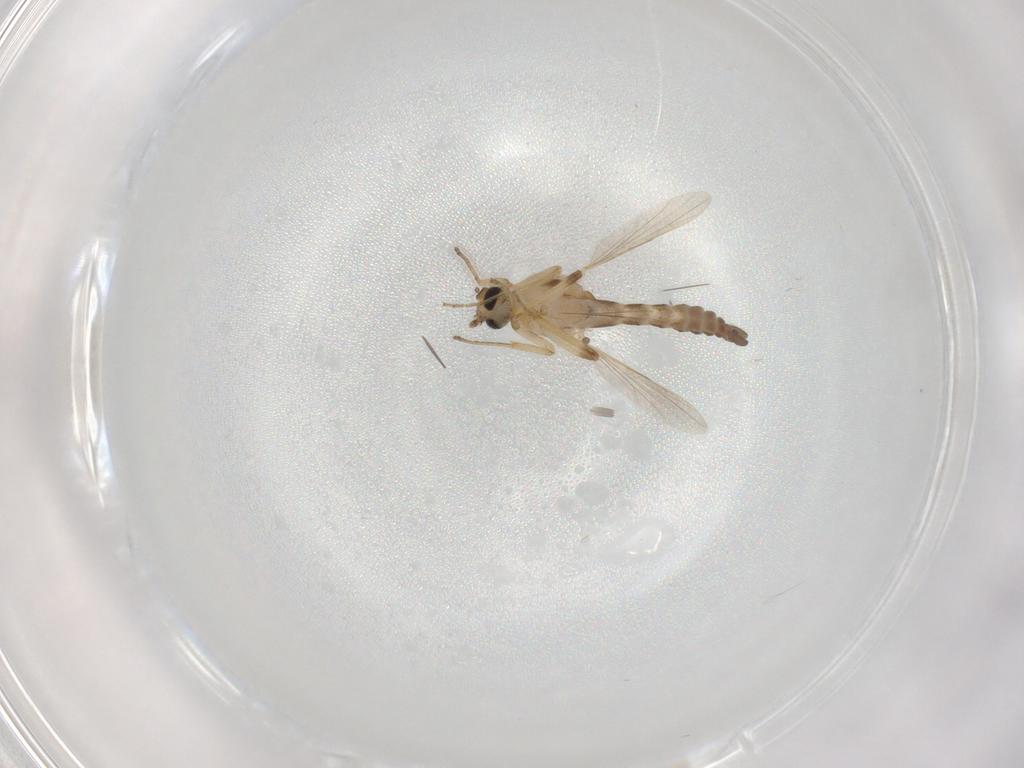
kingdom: Animalia
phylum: Arthropoda
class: Insecta
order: Diptera
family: Ceratopogonidae
